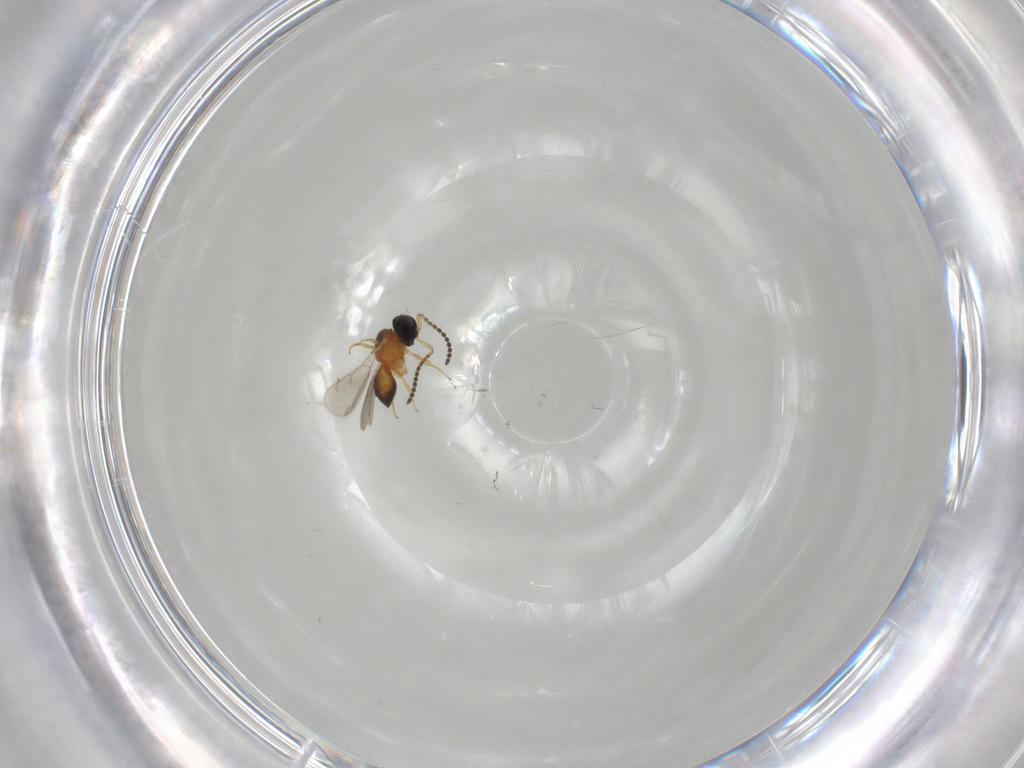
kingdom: Animalia
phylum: Arthropoda
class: Insecta
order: Hymenoptera
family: Scelionidae
